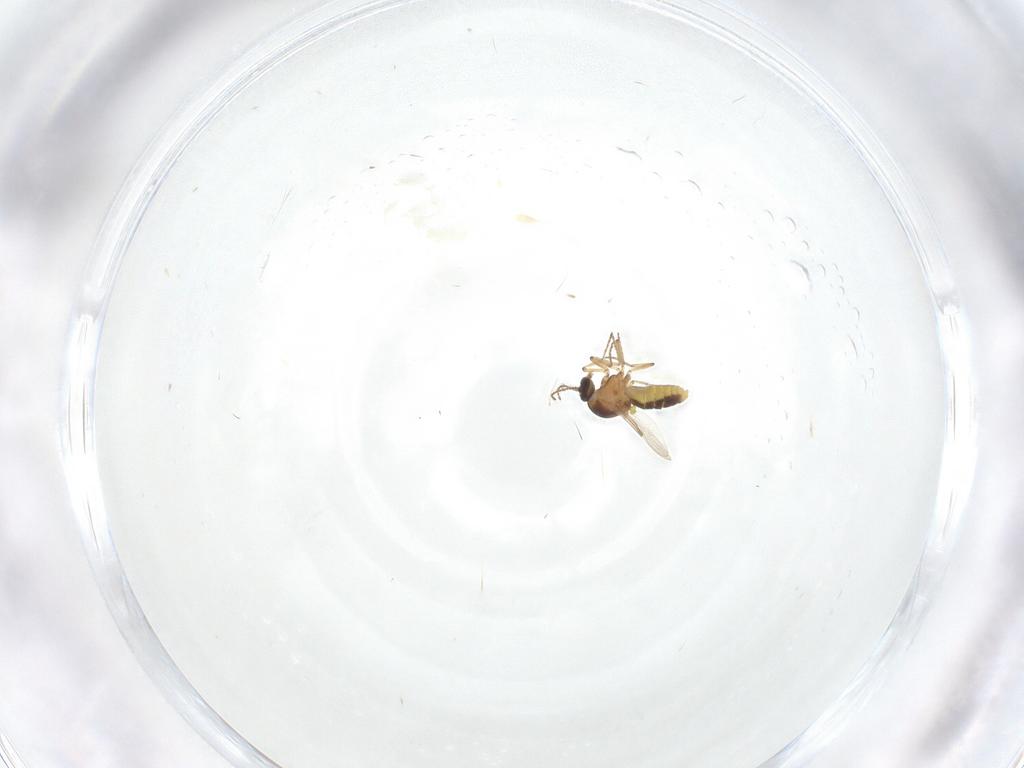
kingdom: Animalia
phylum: Arthropoda
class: Insecta
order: Diptera
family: Ceratopogonidae
